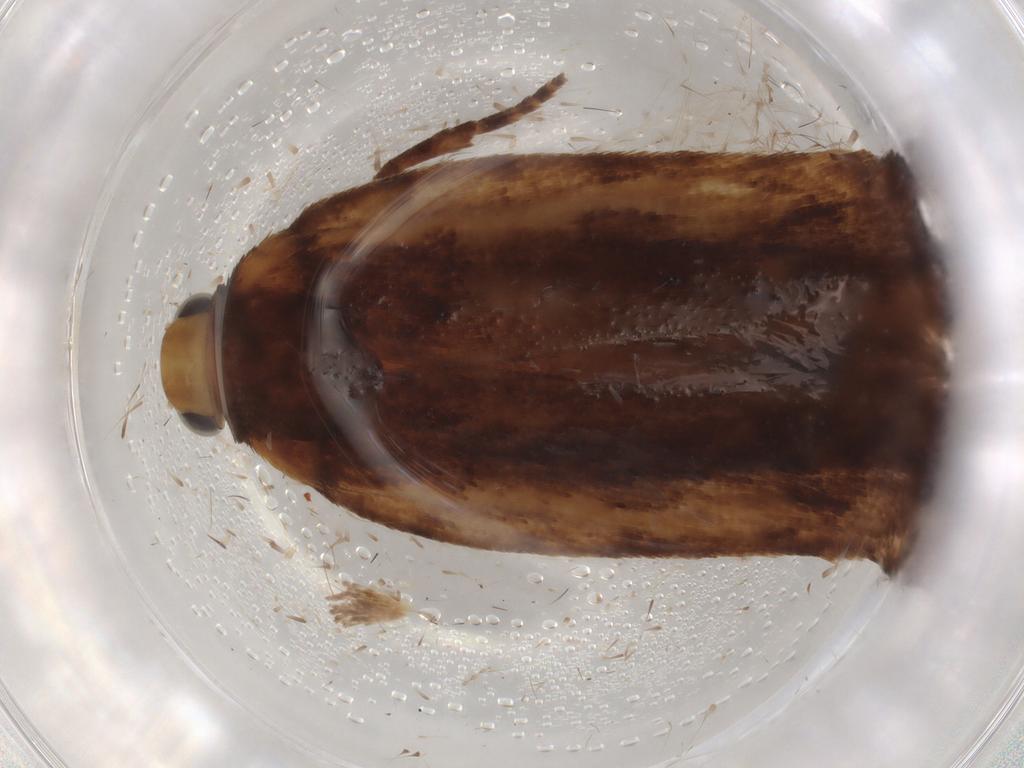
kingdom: Animalia
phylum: Arthropoda
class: Insecta
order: Lepidoptera
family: Gelechiidae
